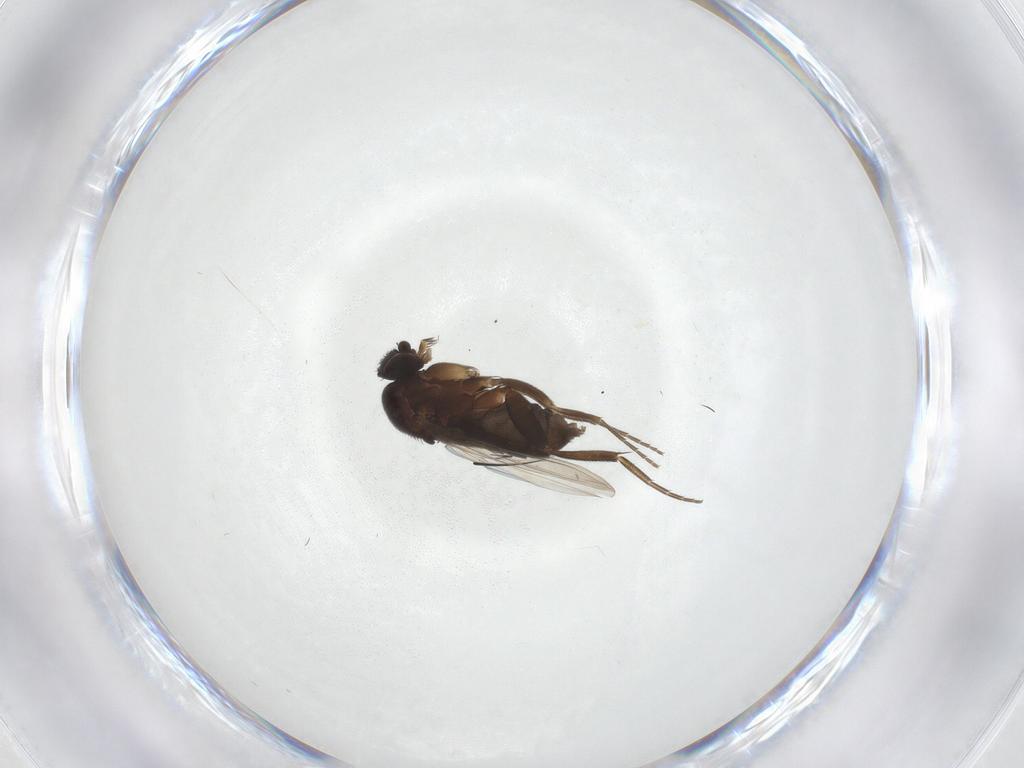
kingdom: Animalia
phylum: Arthropoda
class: Insecta
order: Diptera
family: Phoridae
